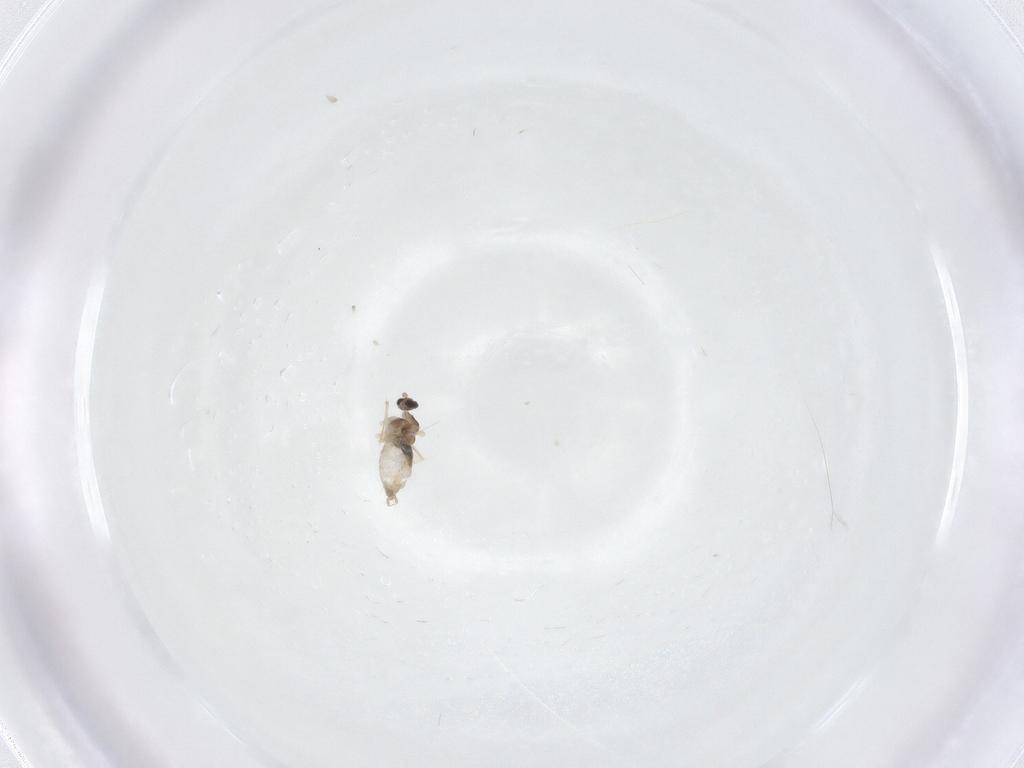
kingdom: Animalia
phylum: Arthropoda
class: Insecta
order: Diptera
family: Cecidomyiidae
